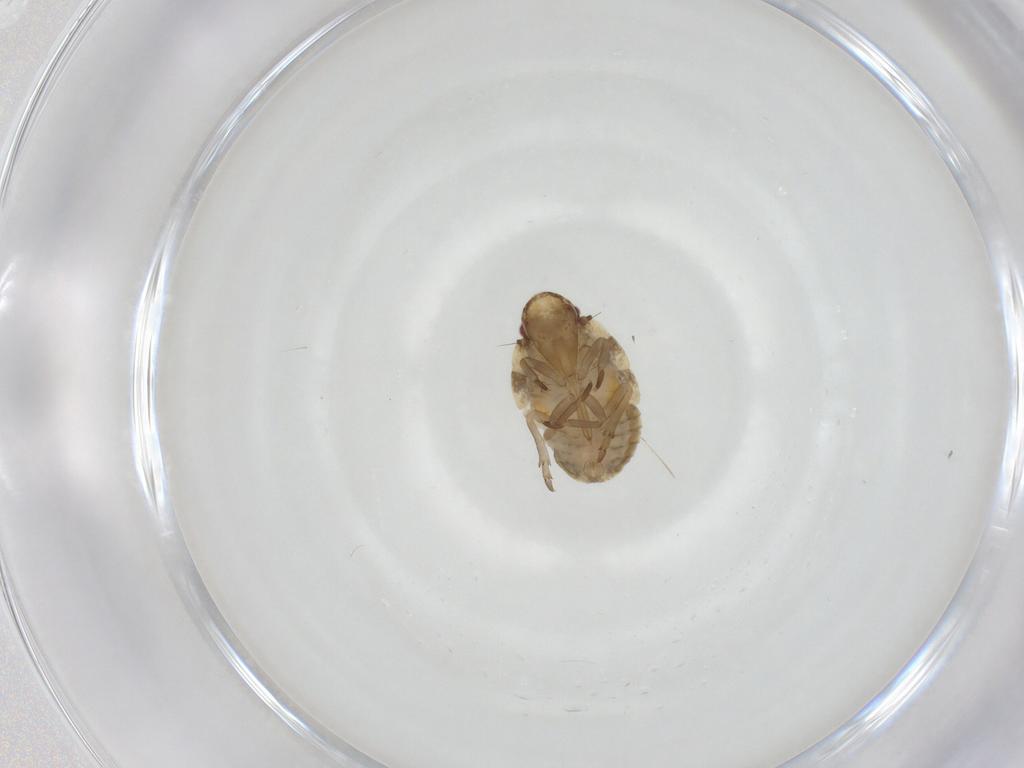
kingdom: Animalia
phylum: Arthropoda
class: Insecta
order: Hemiptera
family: Flatidae
